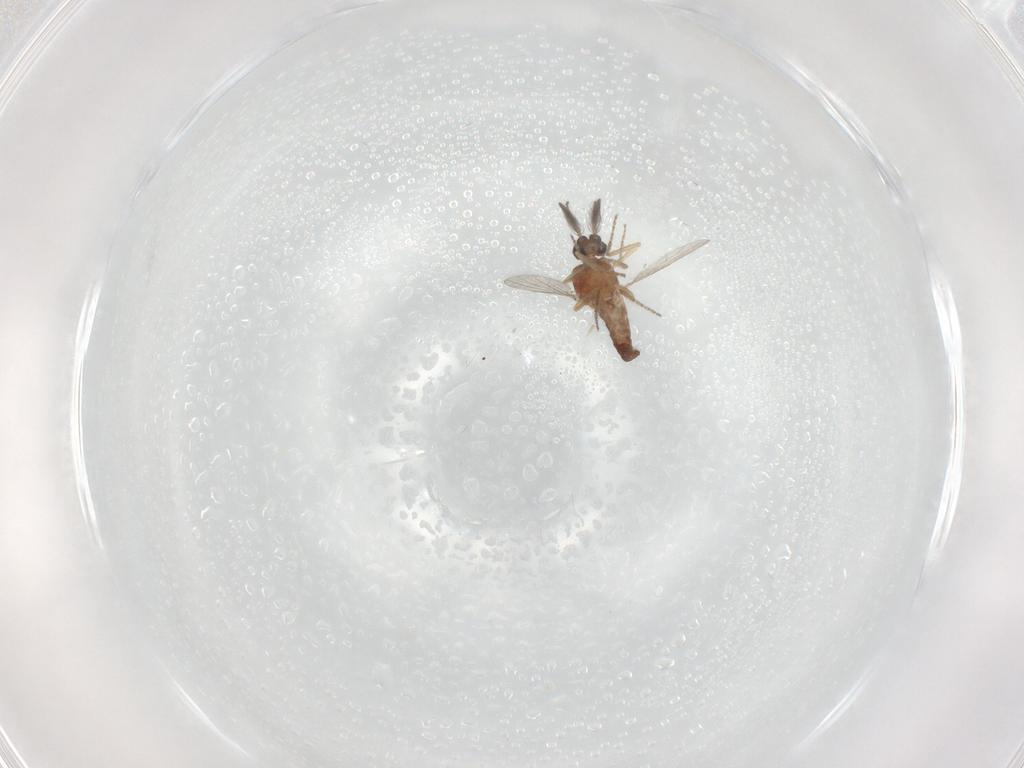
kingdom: Animalia
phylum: Arthropoda
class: Insecta
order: Diptera
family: Ceratopogonidae
